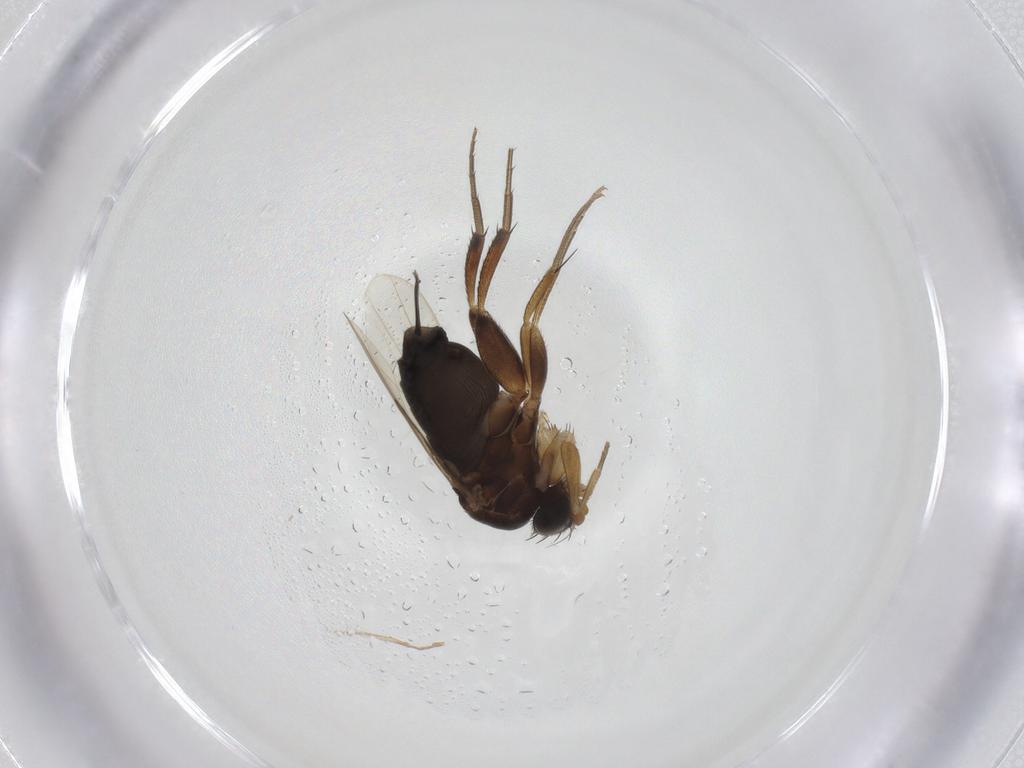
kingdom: Animalia
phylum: Arthropoda
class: Insecta
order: Diptera
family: Phoridae
